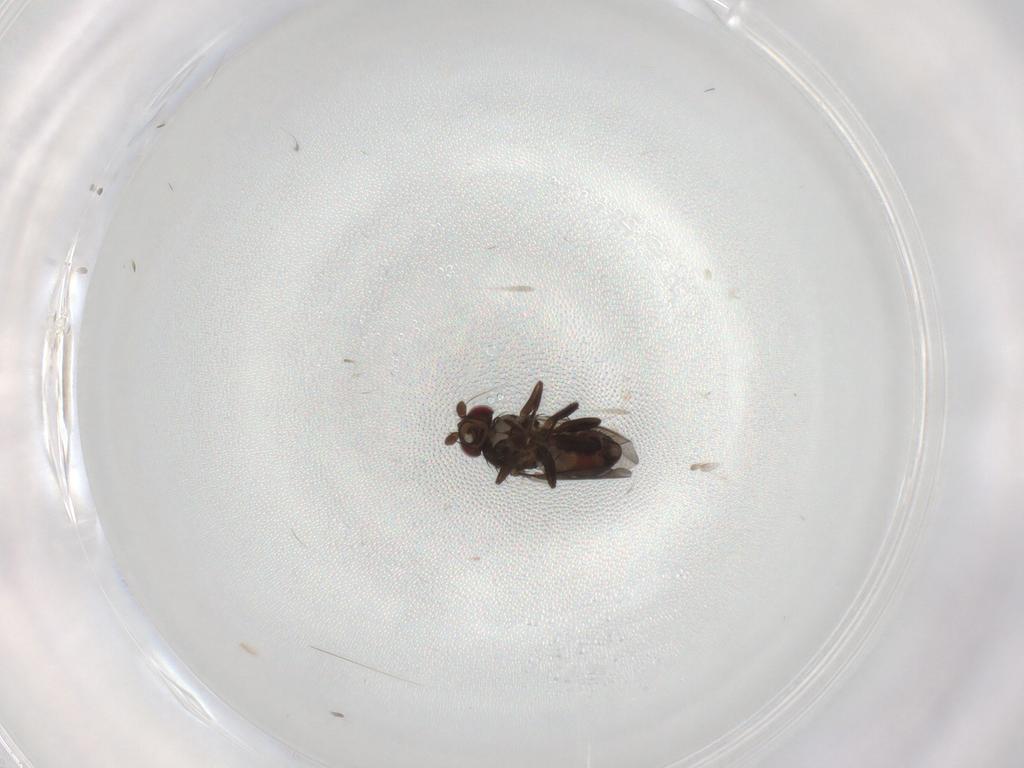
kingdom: Animalia
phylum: Arthropoda
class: Insecta
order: Diptera
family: Sphaeroceridae
